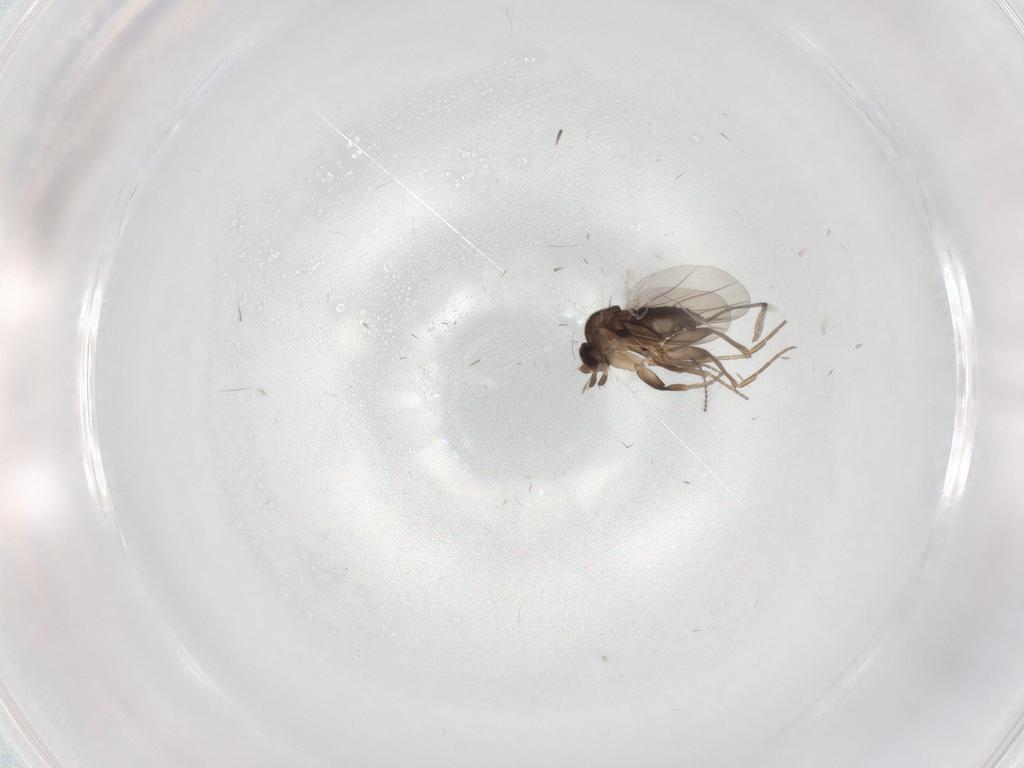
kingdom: Animalia
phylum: Arthropoda
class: Insecta
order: Diptera
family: Sciaridae
